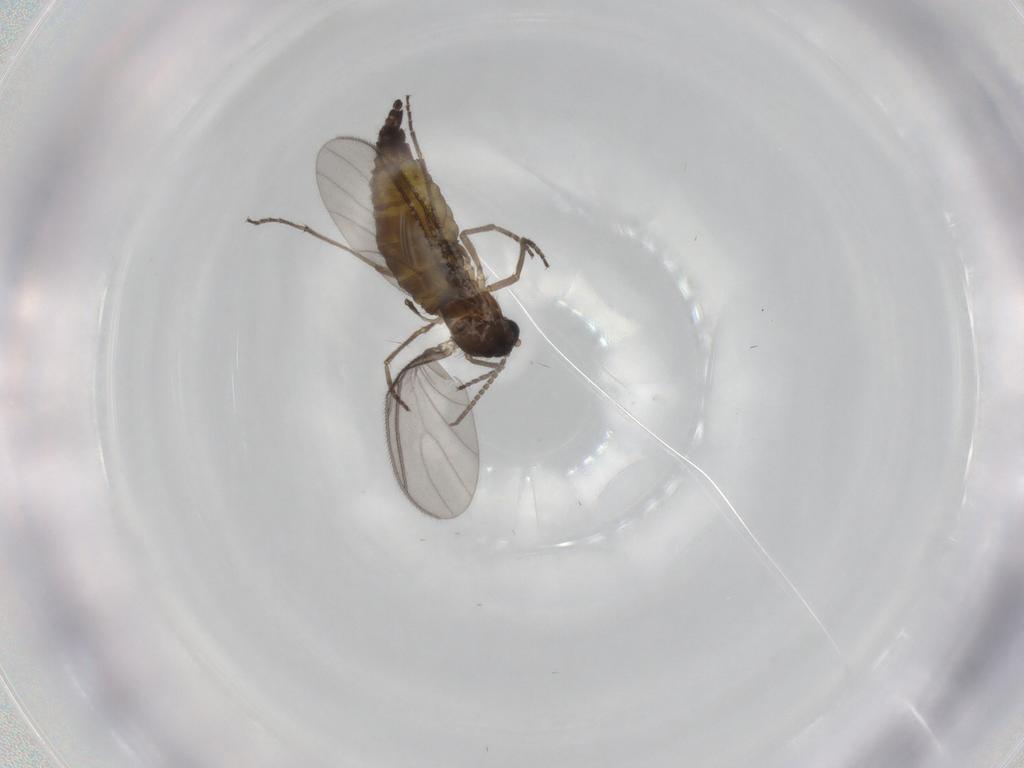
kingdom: Animalia
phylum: Arthropoda
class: Insecta
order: Diptera
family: Sciaridae
